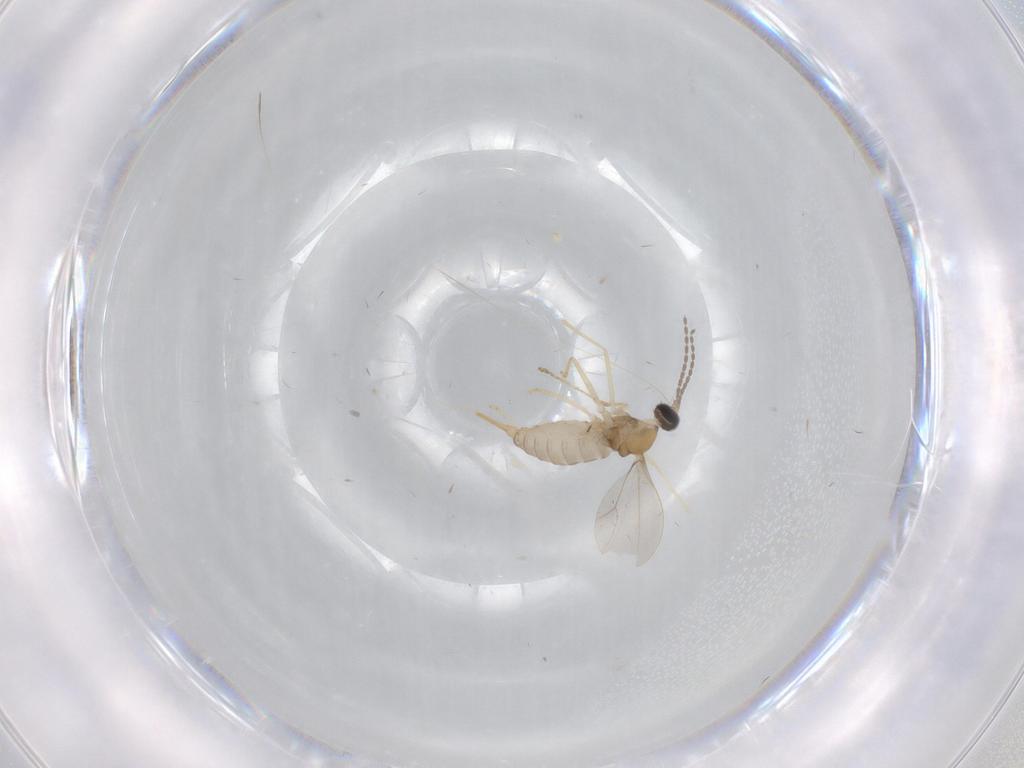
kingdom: Animalia
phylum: Arthropoda
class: Insecta
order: Diptera
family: Cecidomyiidae
